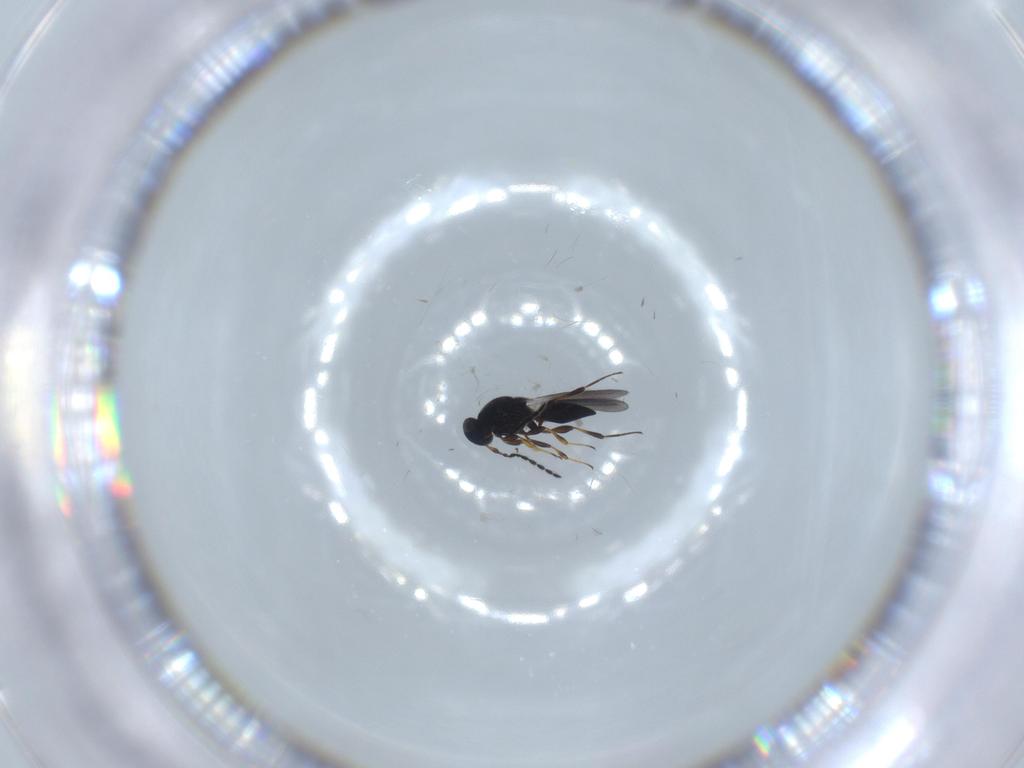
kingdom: Animalia
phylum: Arthropoda
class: Insecta
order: Hymenoptera
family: Platygastridae
